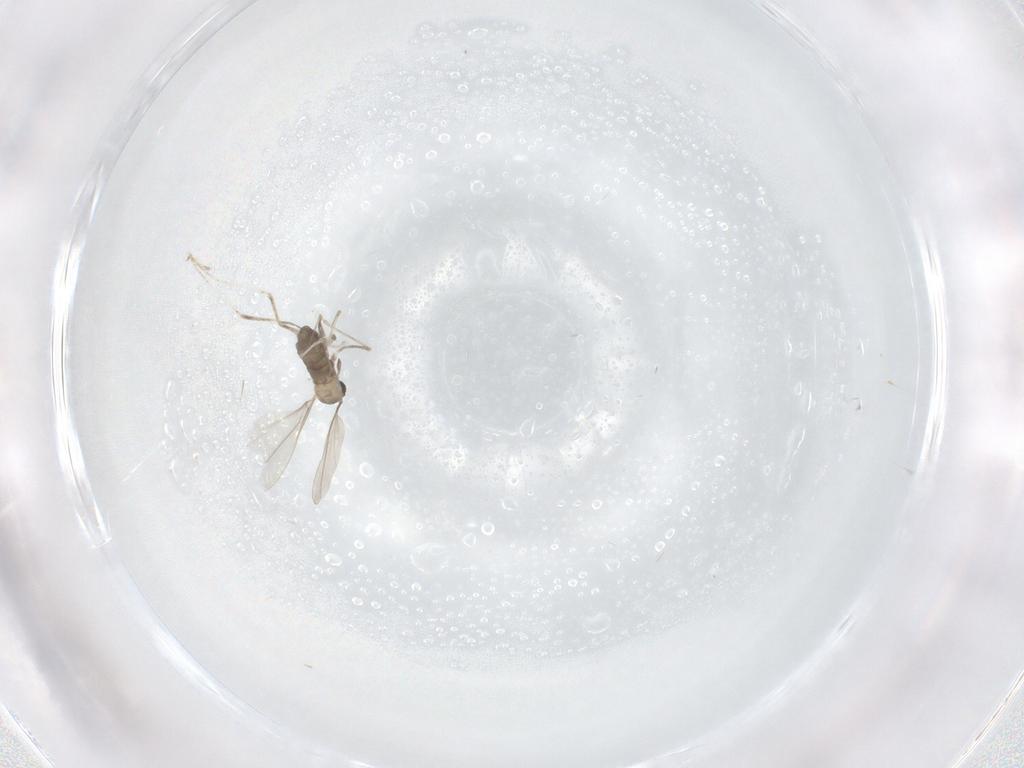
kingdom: Animalia
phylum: Arthropoda
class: Insecta
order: Diptera
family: Cecidomyiidae
